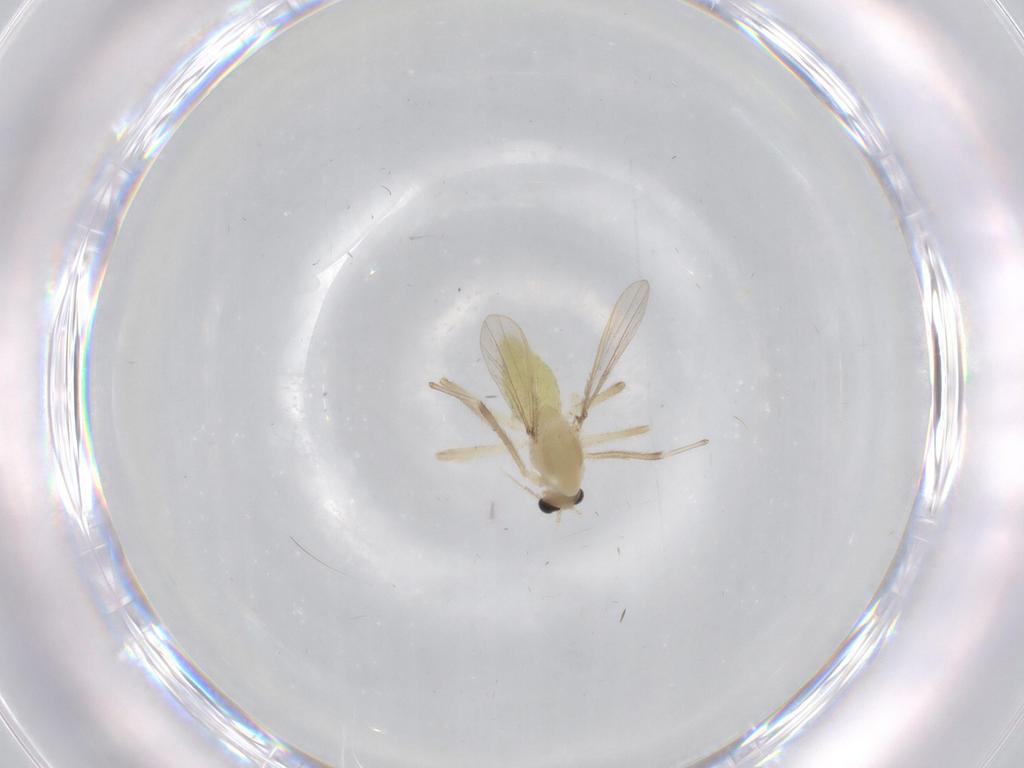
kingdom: Animalia
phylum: Arthropoda
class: Insecta
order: Diptera
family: Chironomidae
